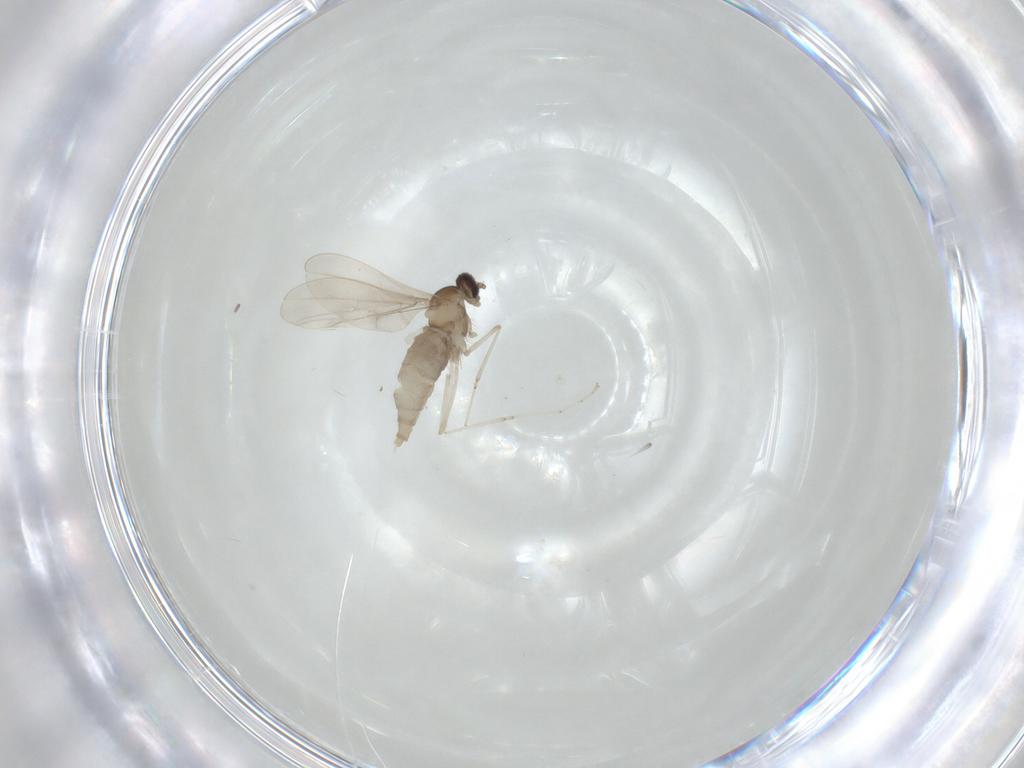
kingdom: Animalia
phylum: Arthropoda
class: Insecta
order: Diptera
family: Cecidomyiidae
